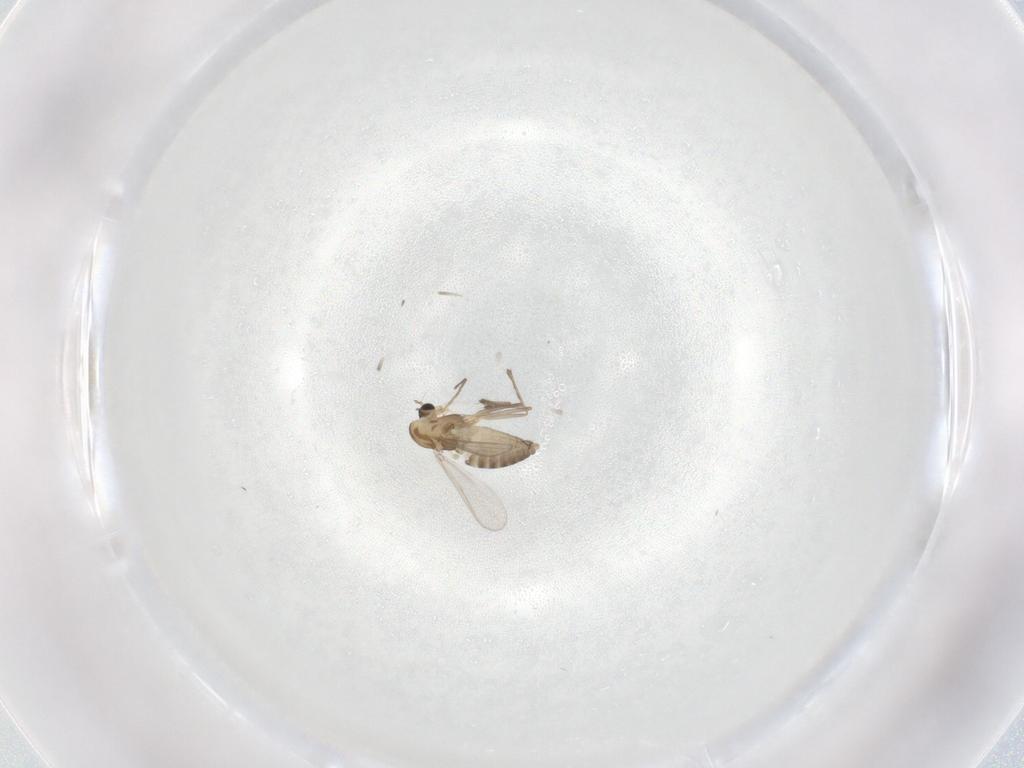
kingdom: Animalia
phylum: Arthropoda
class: Insecta
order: Diptera
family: Chironomidae
